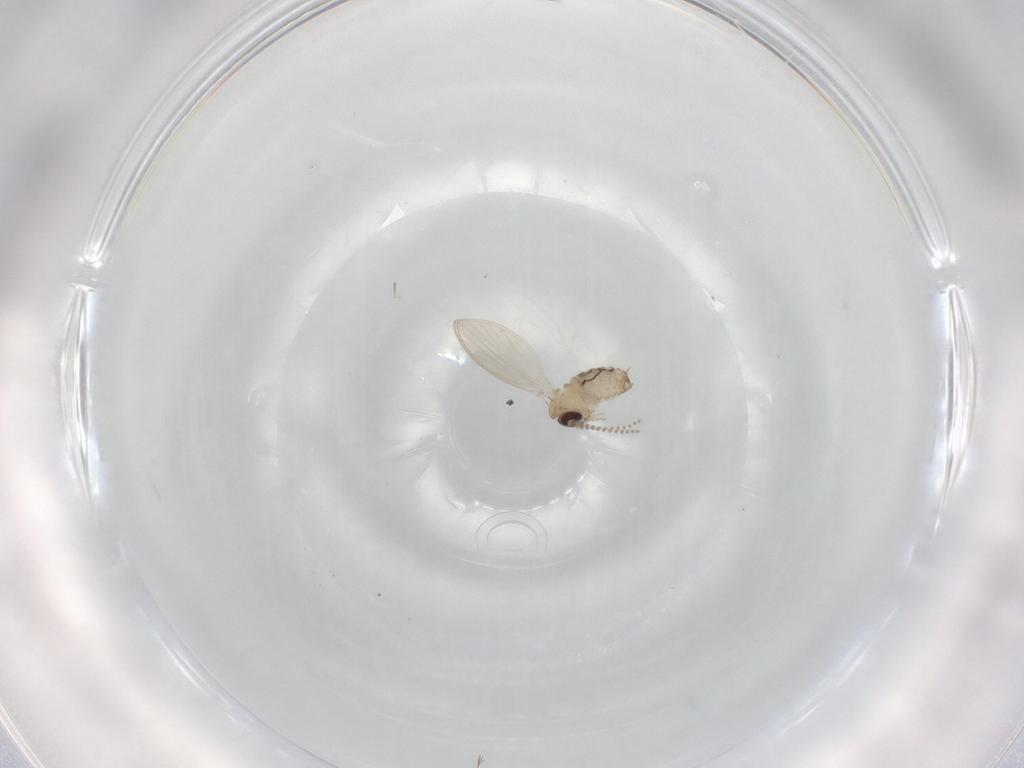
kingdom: Animalia
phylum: Arthropoda
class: Insecta
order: Diptera
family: Psychodidae
